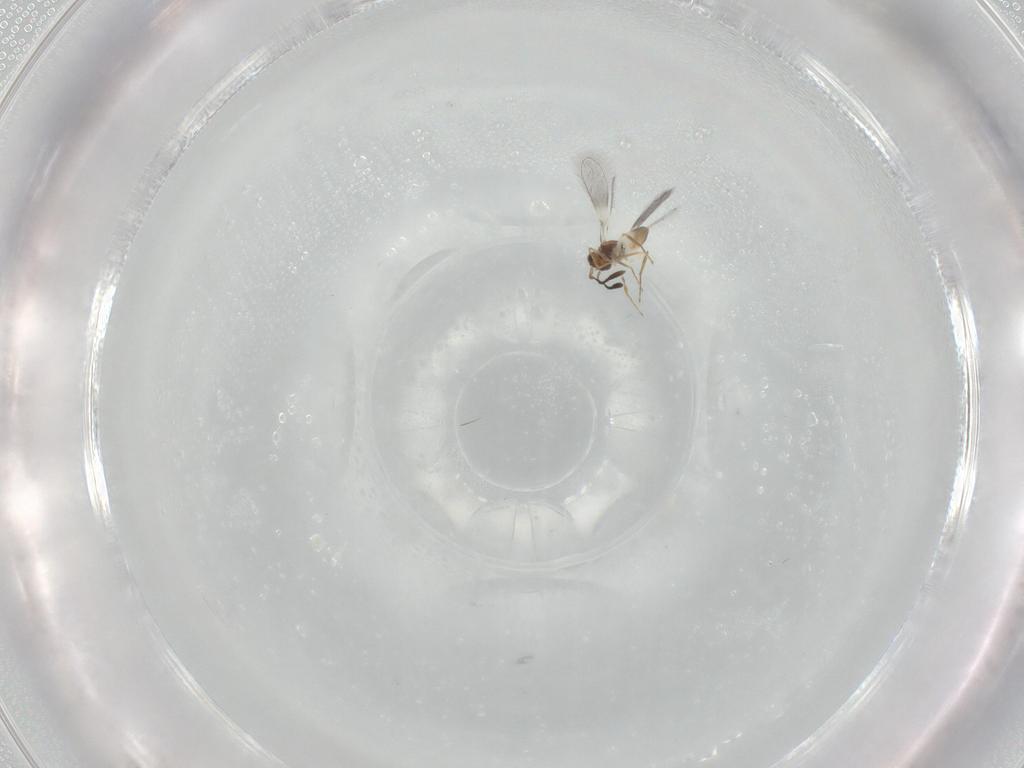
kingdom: Animalia
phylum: Arthropoda
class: Insecta
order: Hymenoptera
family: Mymaridae
